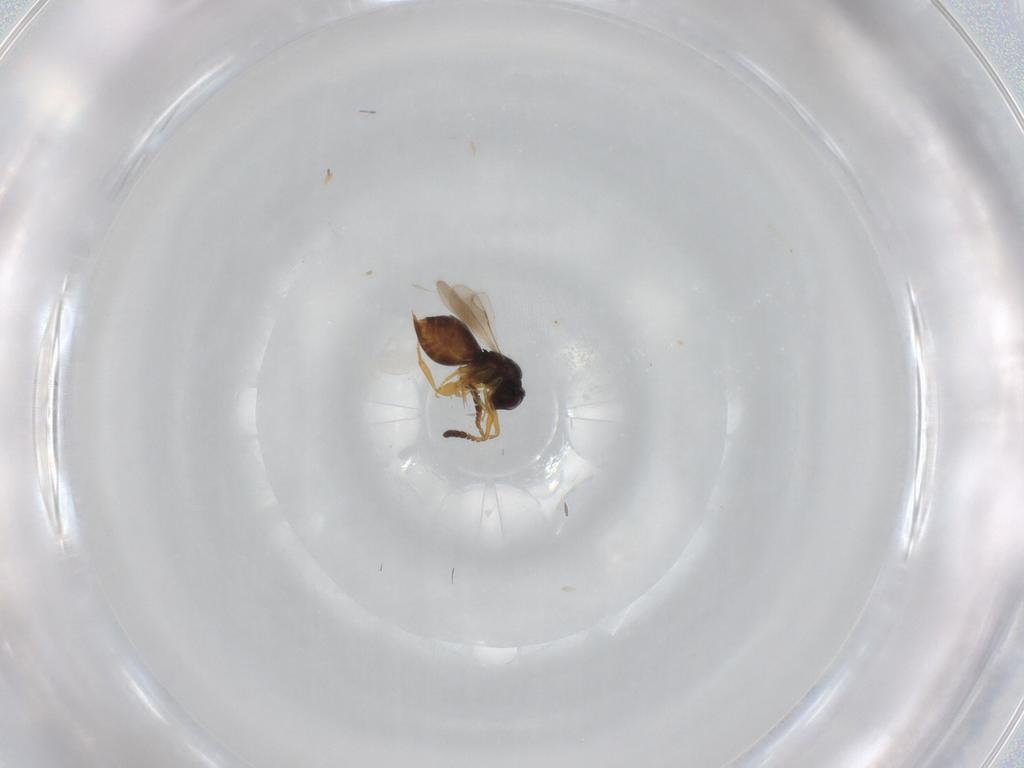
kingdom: Animalia
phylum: Arthropoda
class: Insecta
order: Hymenoptera
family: Ceraphronidae
